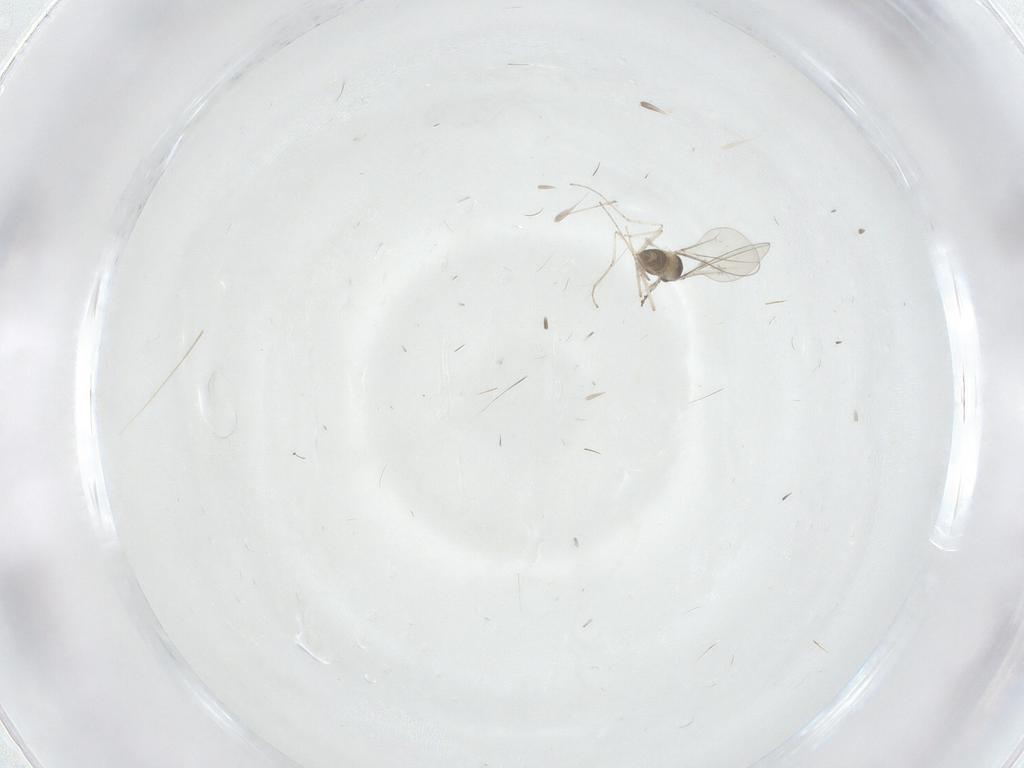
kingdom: Animalia
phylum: Arthropoda
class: Insecta
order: Diptera
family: Cecidomyiidae
